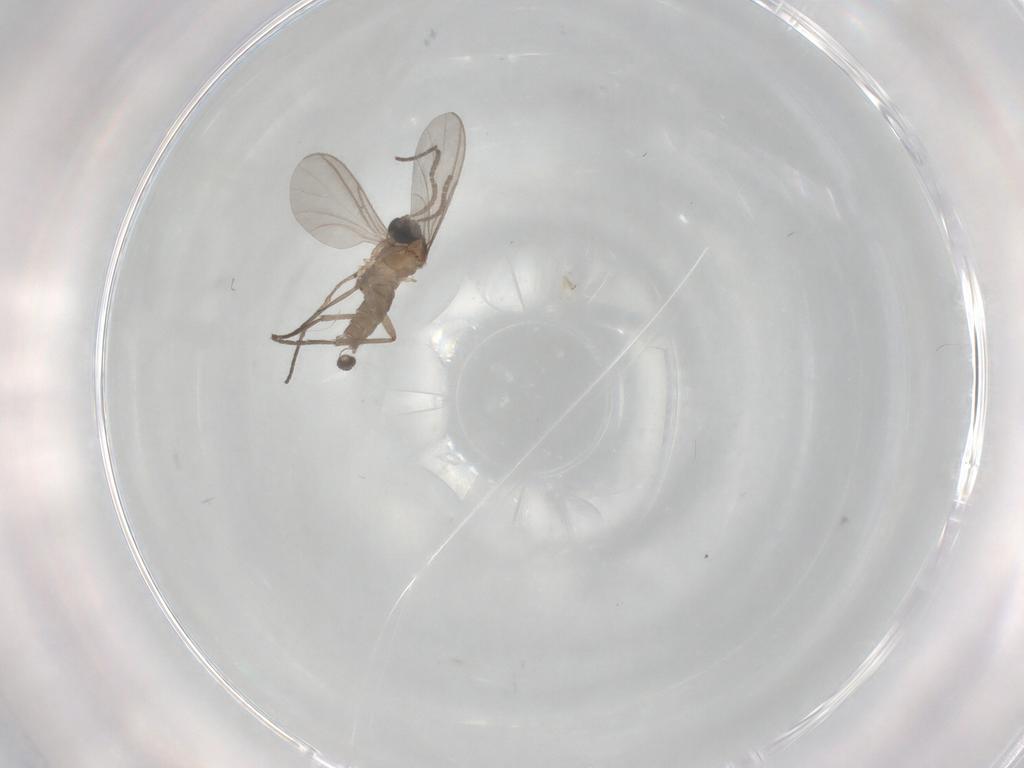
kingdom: Animalia
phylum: Arthropoda
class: Insecta
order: Diptera
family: Sciaridae
